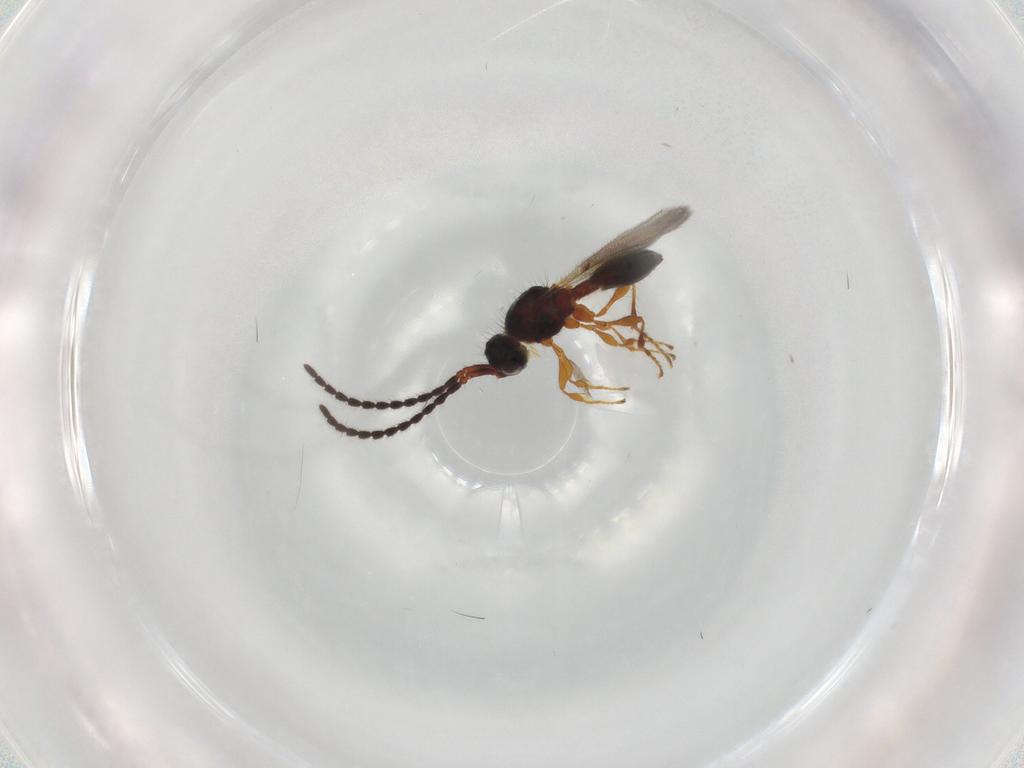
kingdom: Animalia
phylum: Arthropoda
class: Insecta
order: Hymenoptera
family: Diapriidae
